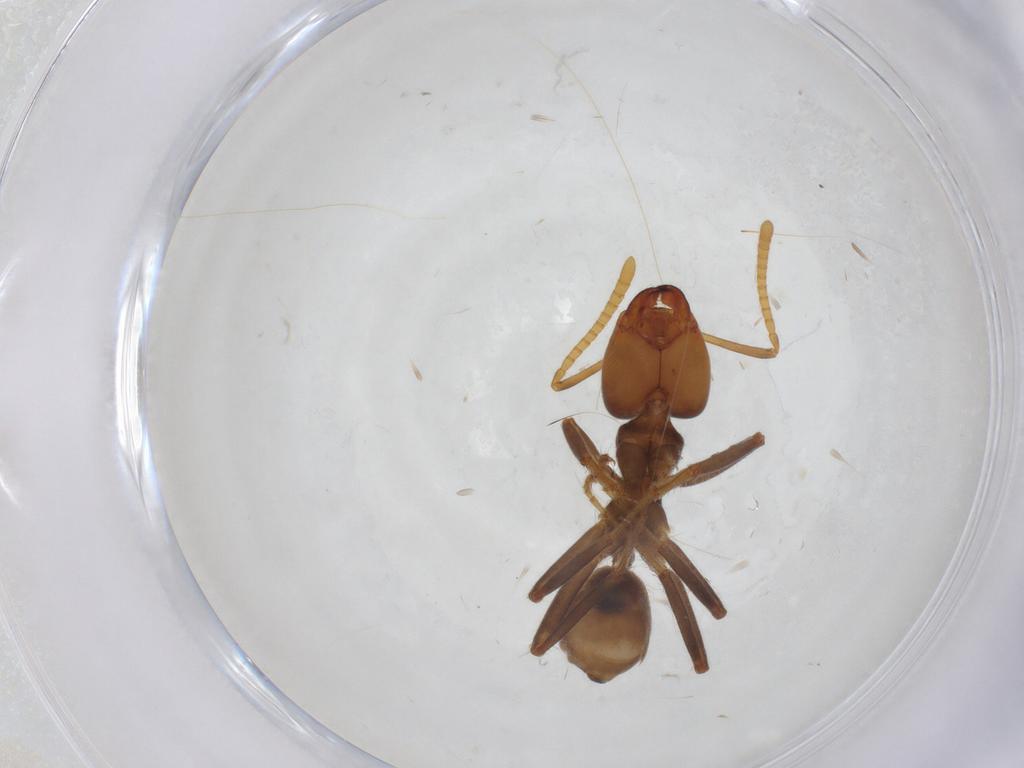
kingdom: Animalia
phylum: Arthropoda
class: Insecta
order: Hymenoptera
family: Formicidae
